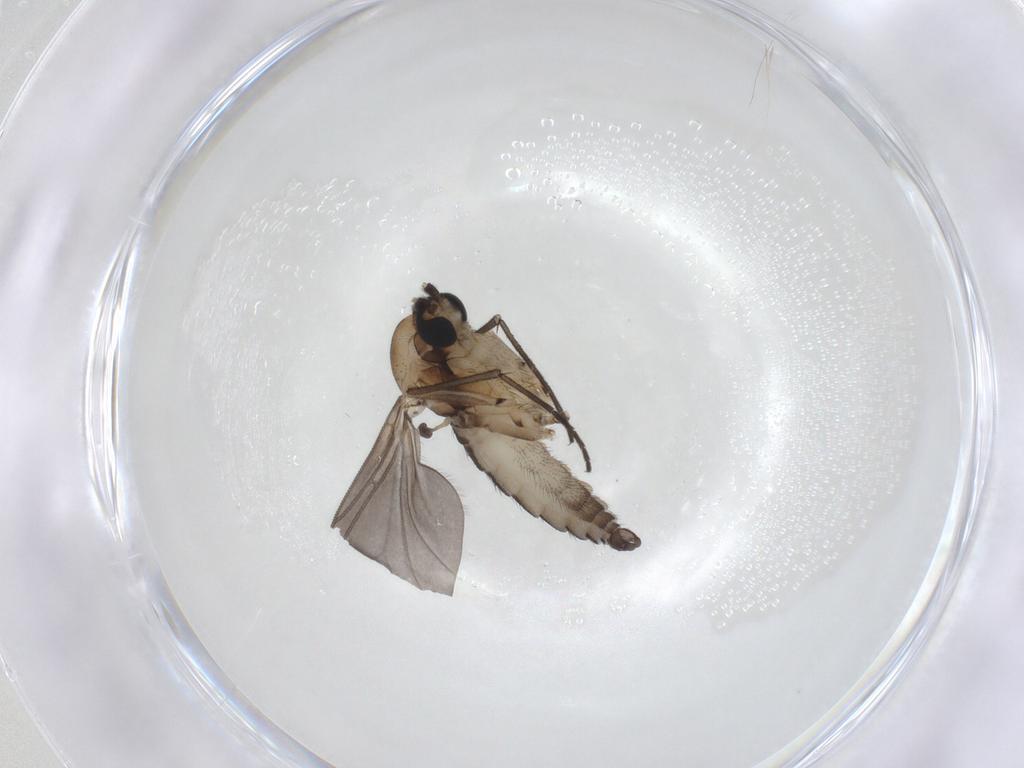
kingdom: Animalia
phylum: Arthropoda
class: Insecta
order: Diptera
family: Sciaridae
